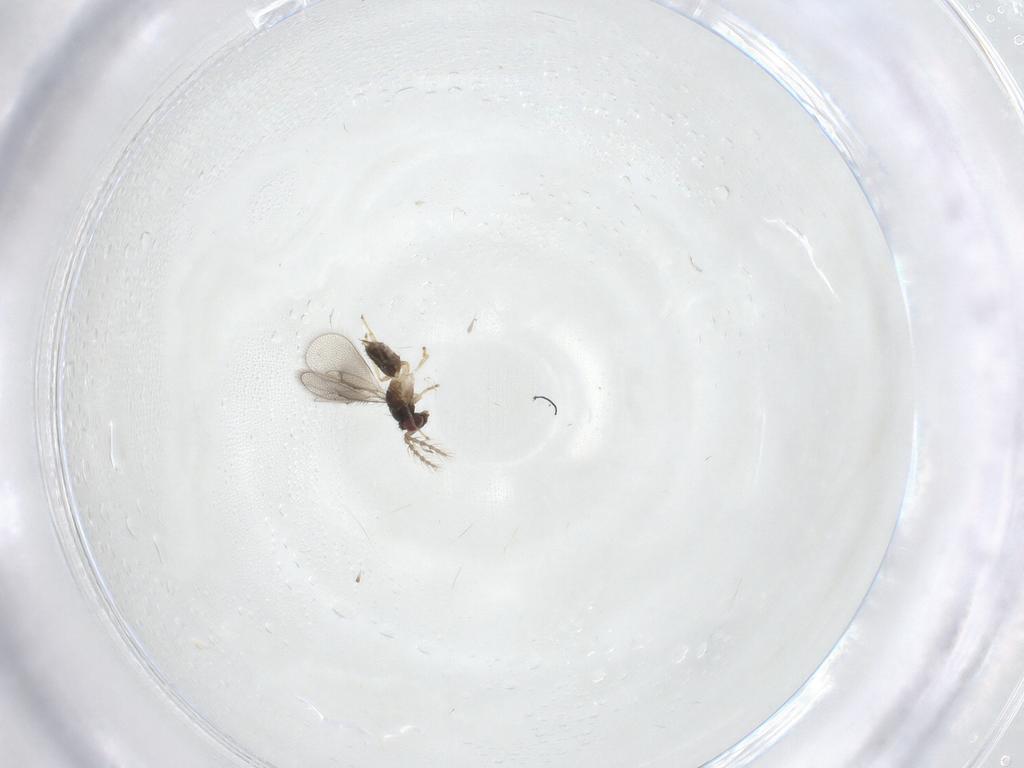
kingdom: Animalia
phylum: Arthropoda
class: Insecta
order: Hymenoptera
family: Eulophidae
